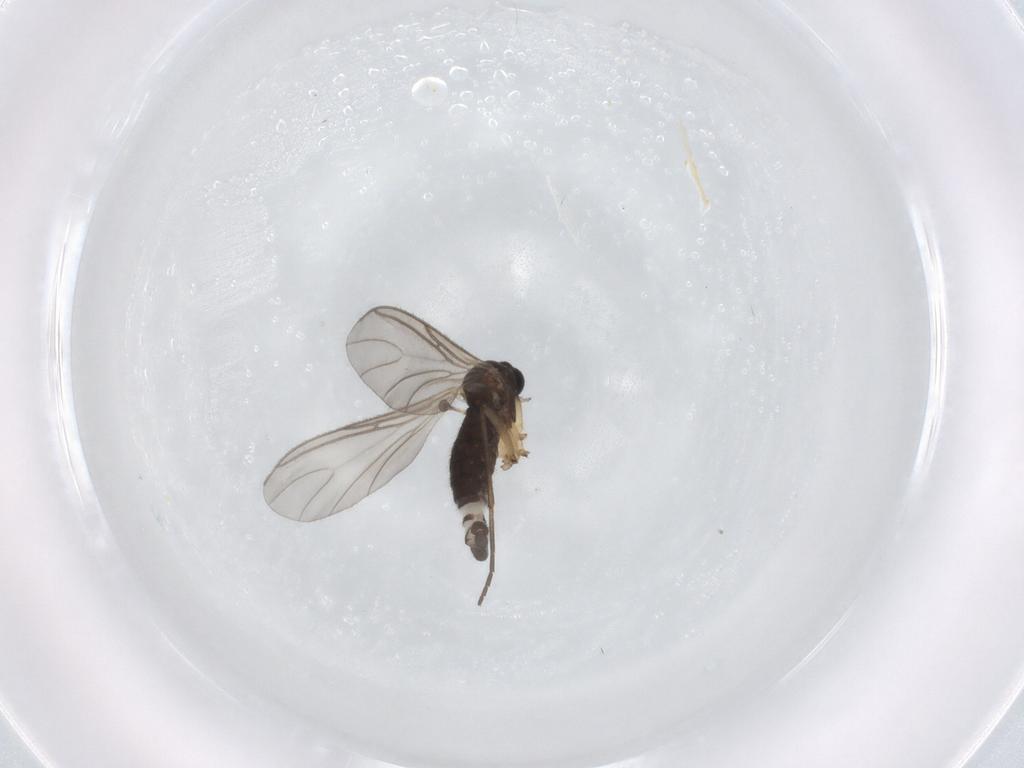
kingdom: Animalia
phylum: Arthropoda
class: Insecta
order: Diptera
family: Sciaridae
